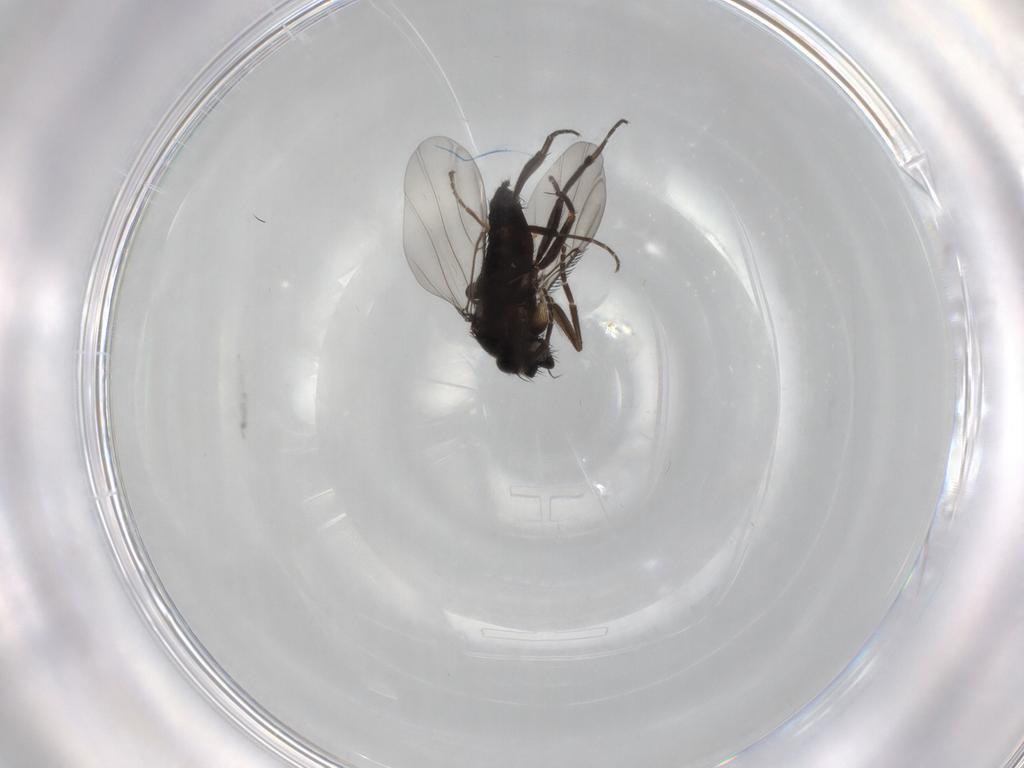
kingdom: Animalia
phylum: Arthropoda
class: Insecta
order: Diptera
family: Phoridae
